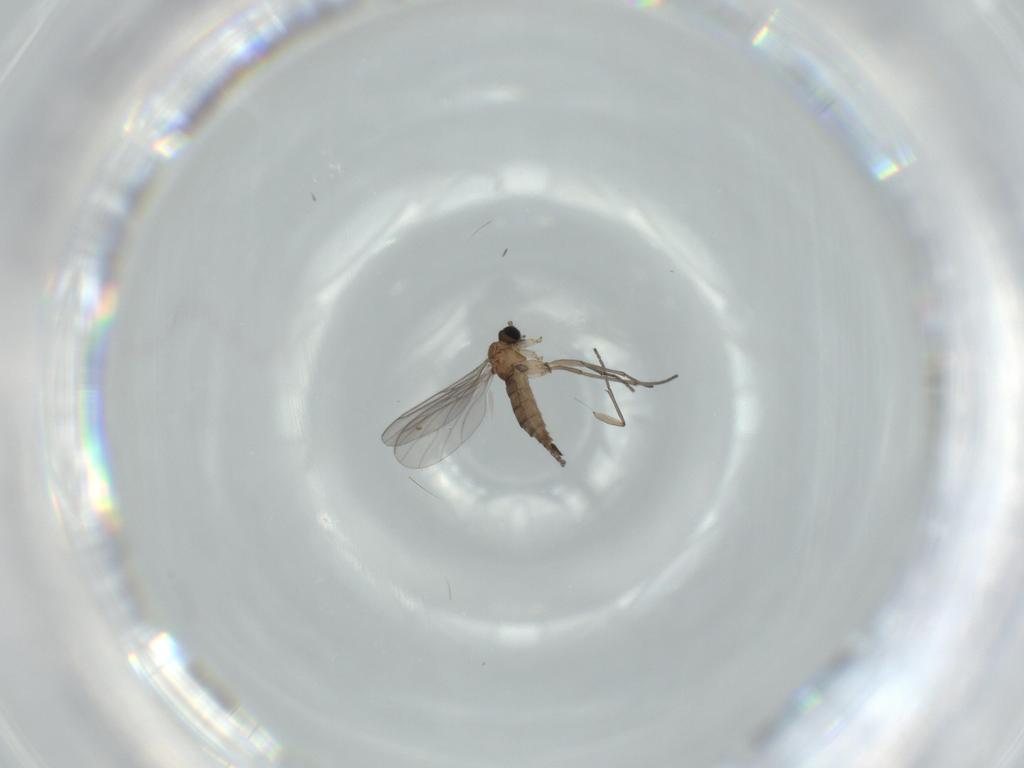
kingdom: Animalia
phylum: Arthropoda
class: Insecta
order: Diptera
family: Sciaridae
